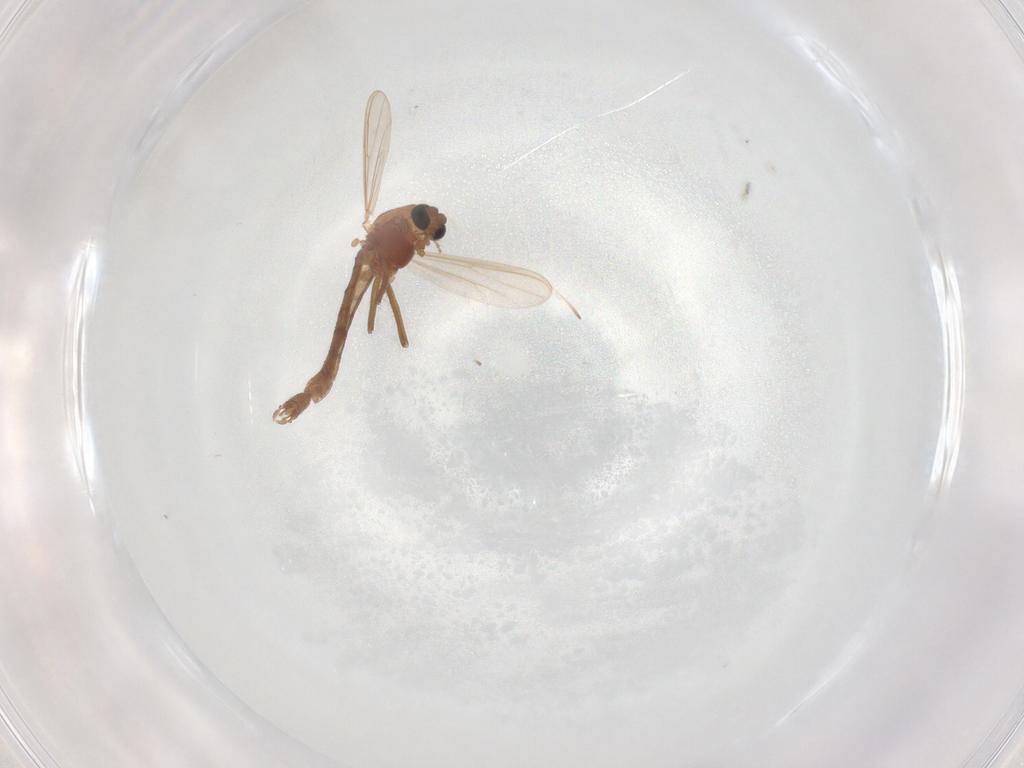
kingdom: Animalia
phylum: Arthropoda
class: Insecta
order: Diptera
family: Chironomidae
